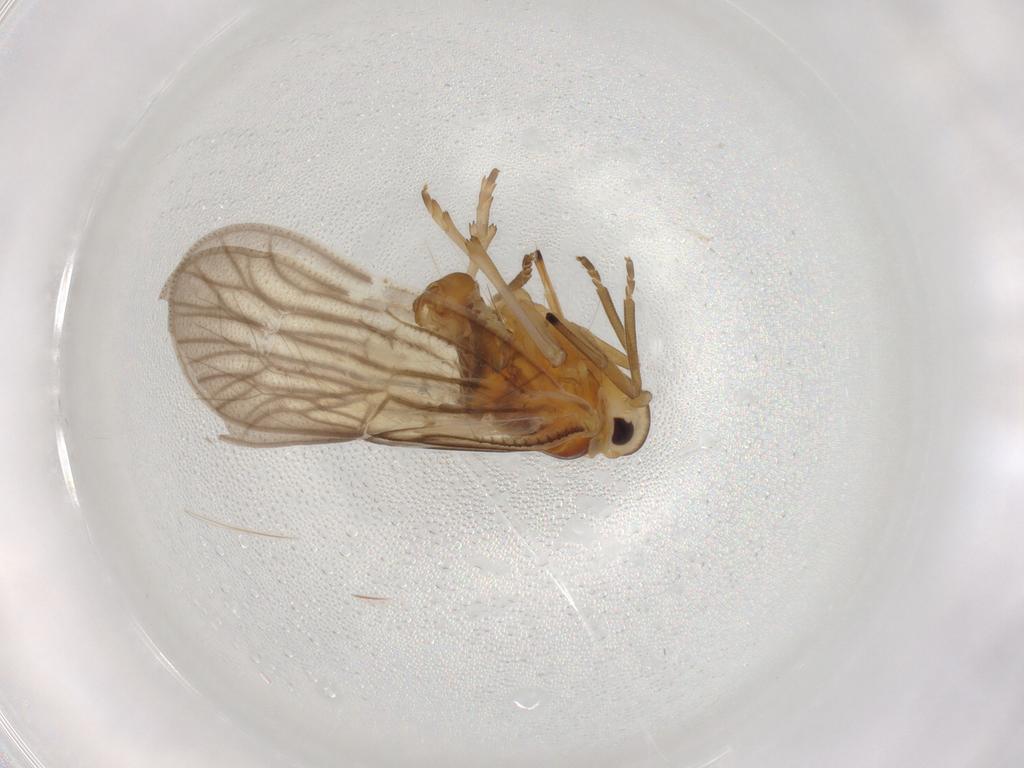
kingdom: Animalia
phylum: Arthropoda
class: Insecta
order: Hemiptera
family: Meenoplidae
